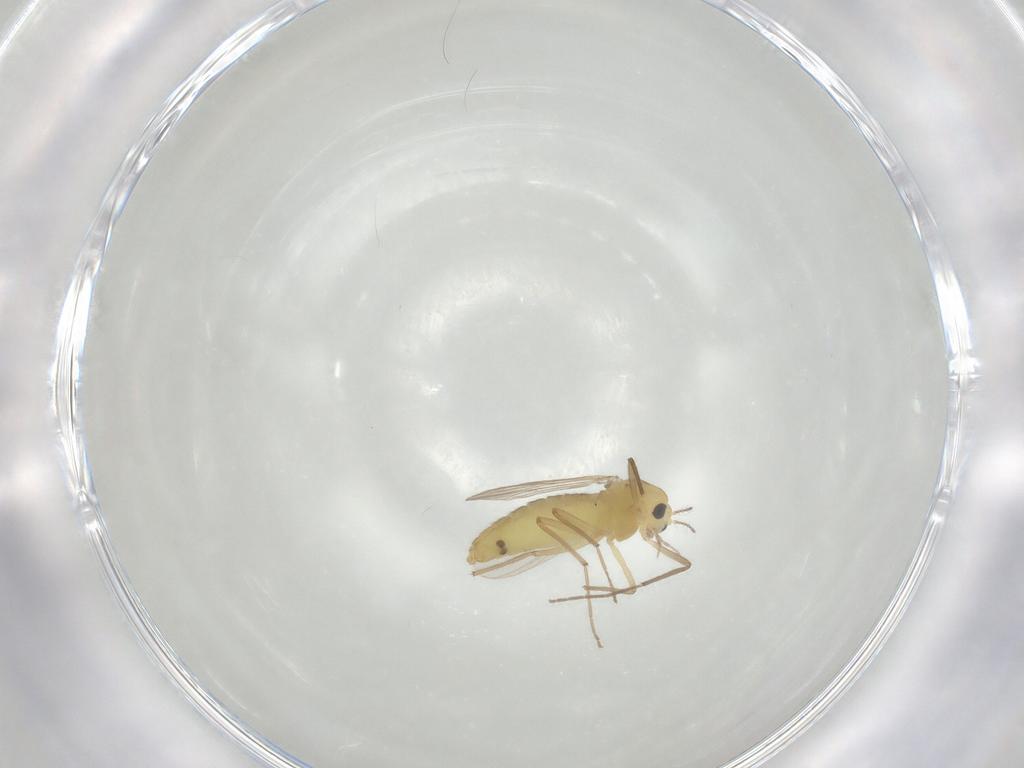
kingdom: Animalia
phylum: Arthropoda
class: Insecta
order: Diptera
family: Chironomidae
